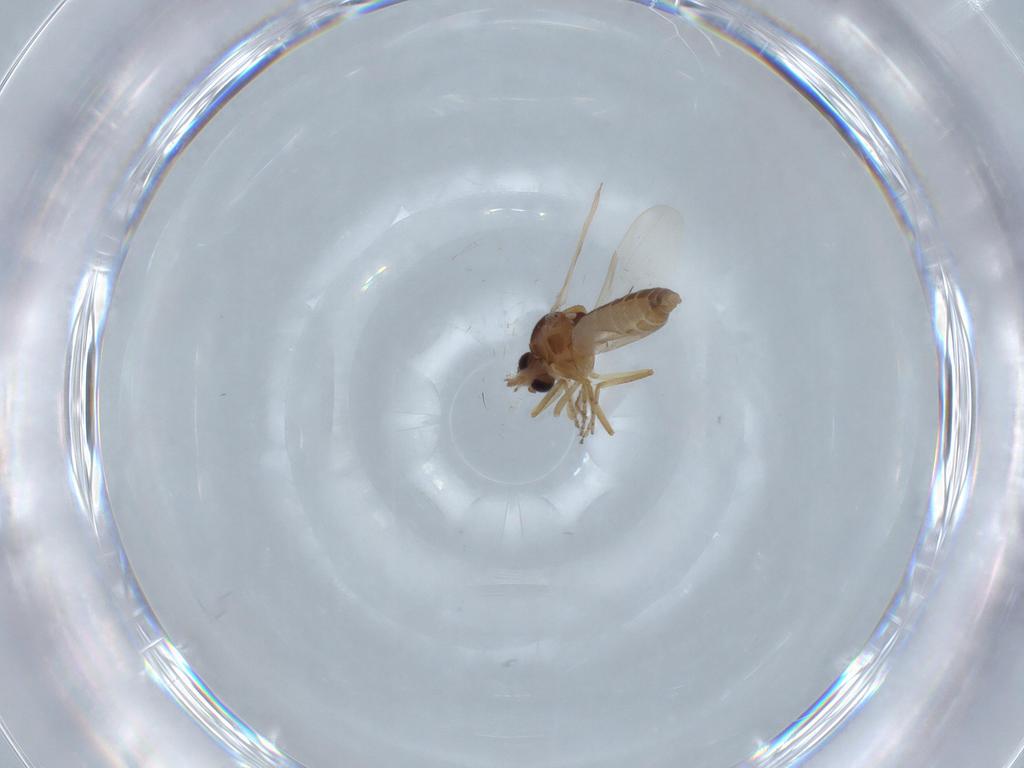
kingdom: Animalia
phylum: Arthropoda
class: Insecta
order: Diptera
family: Ceratopogonidae
